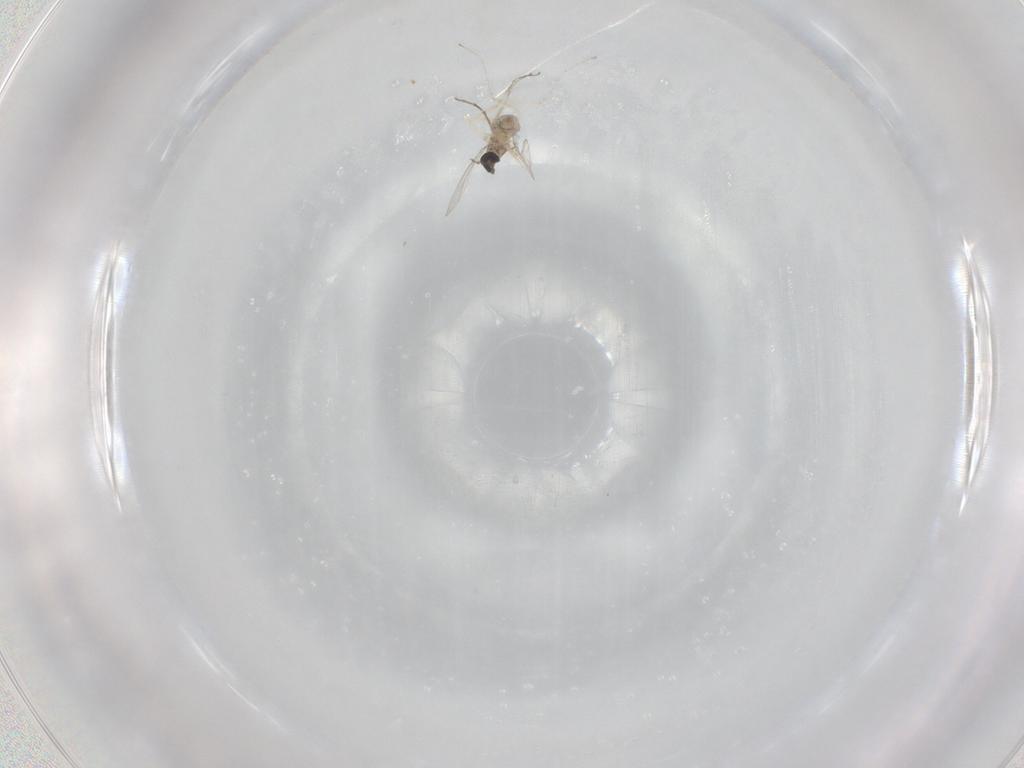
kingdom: Animalia
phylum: Arthropoda
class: Insecta
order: Diptera
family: Cecidomyiidae
